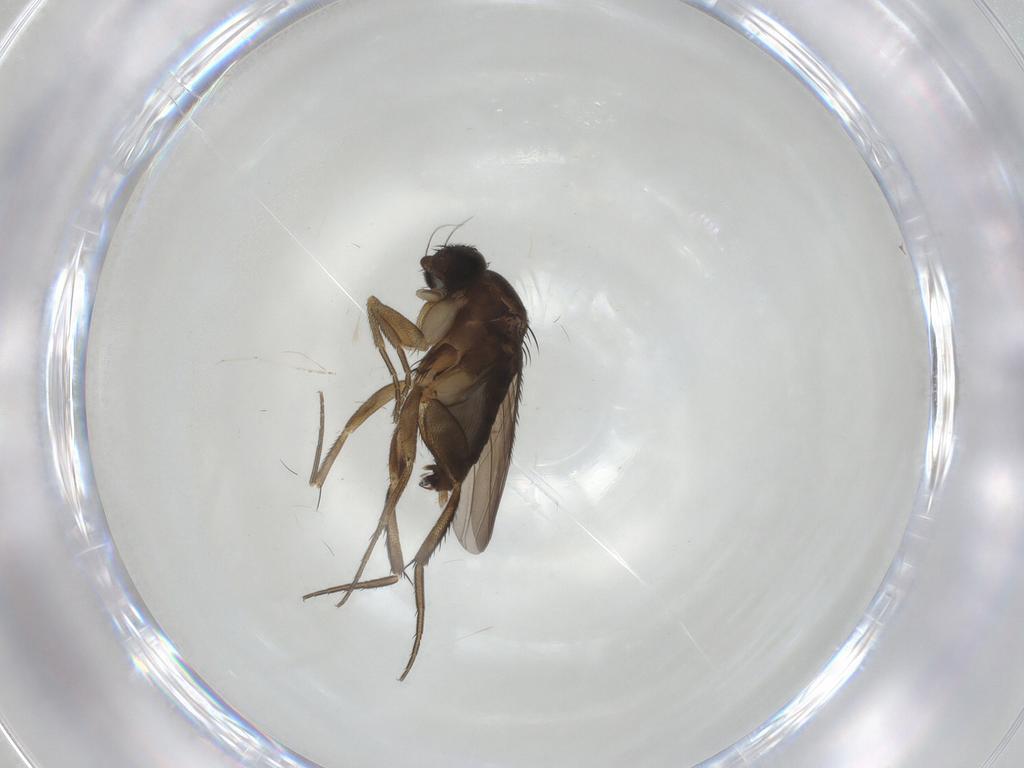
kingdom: Animalia
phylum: Arthropoda
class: Insecta
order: Diptera
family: Phoridae
